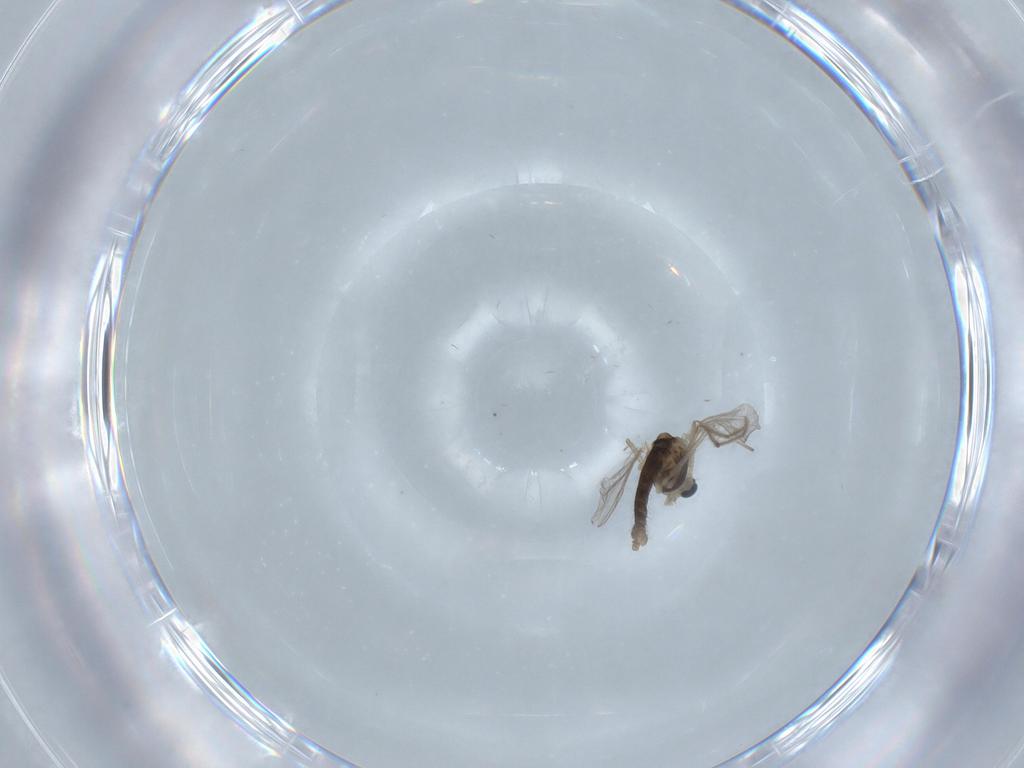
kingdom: Animalia
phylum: Arthropoda
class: Insecta
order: Diptera
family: Chironomidae
